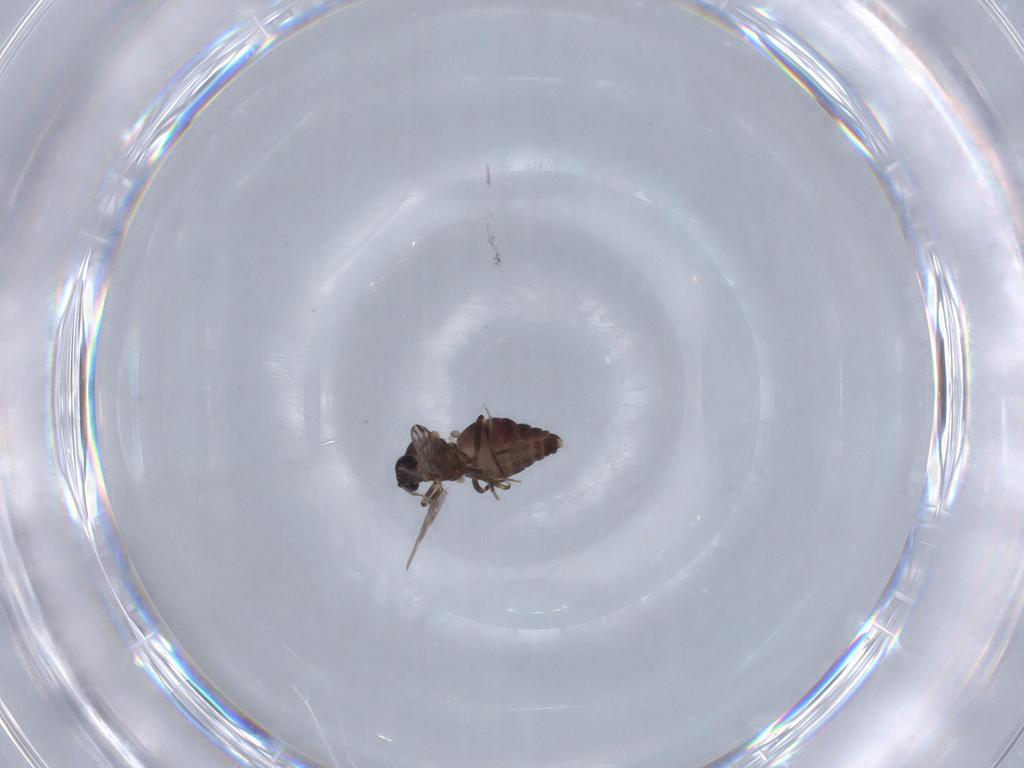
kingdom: Animalia
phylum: Arthropoda
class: Insecta
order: Diptera
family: Ceratopogonidae
